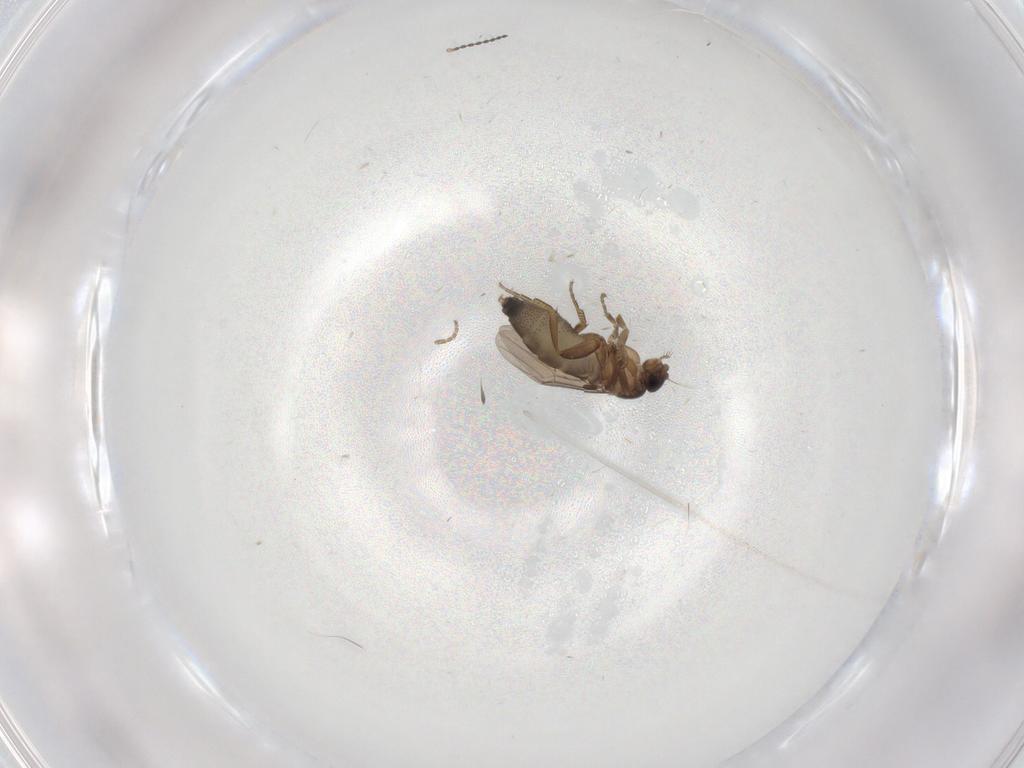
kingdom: Animalia
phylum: Arthropoda
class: Insecta
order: Diptera
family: Phoridae
